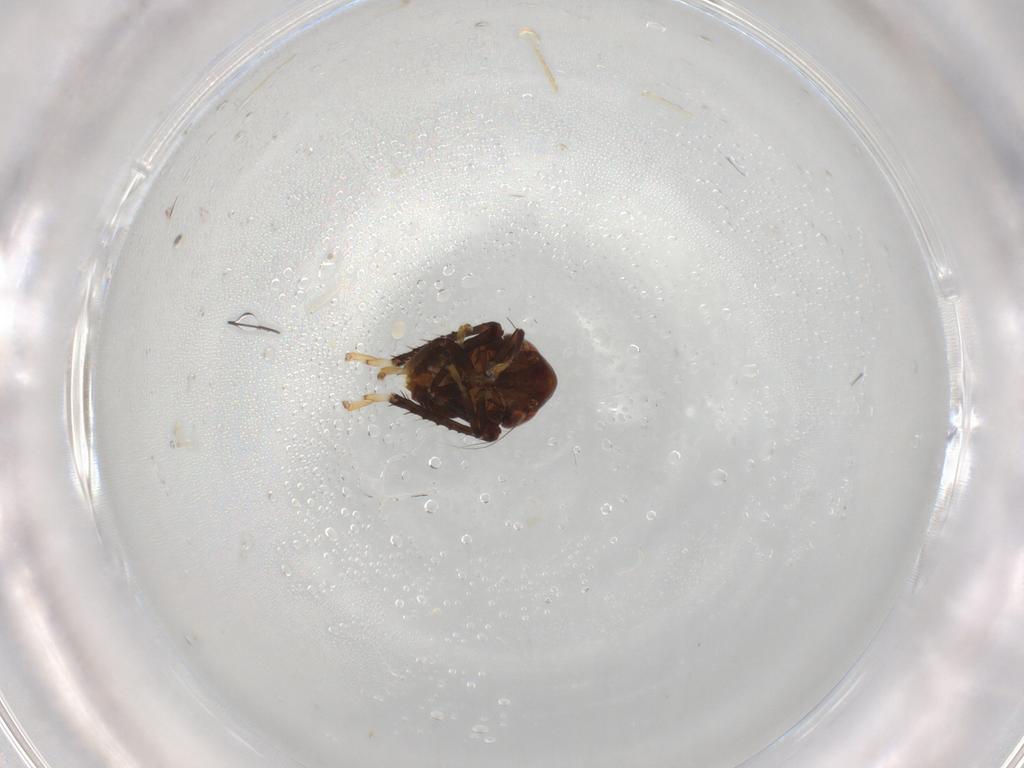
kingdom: Animalia
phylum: Arthropoda
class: Insecta
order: Hemiptera
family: Cicadellidae
